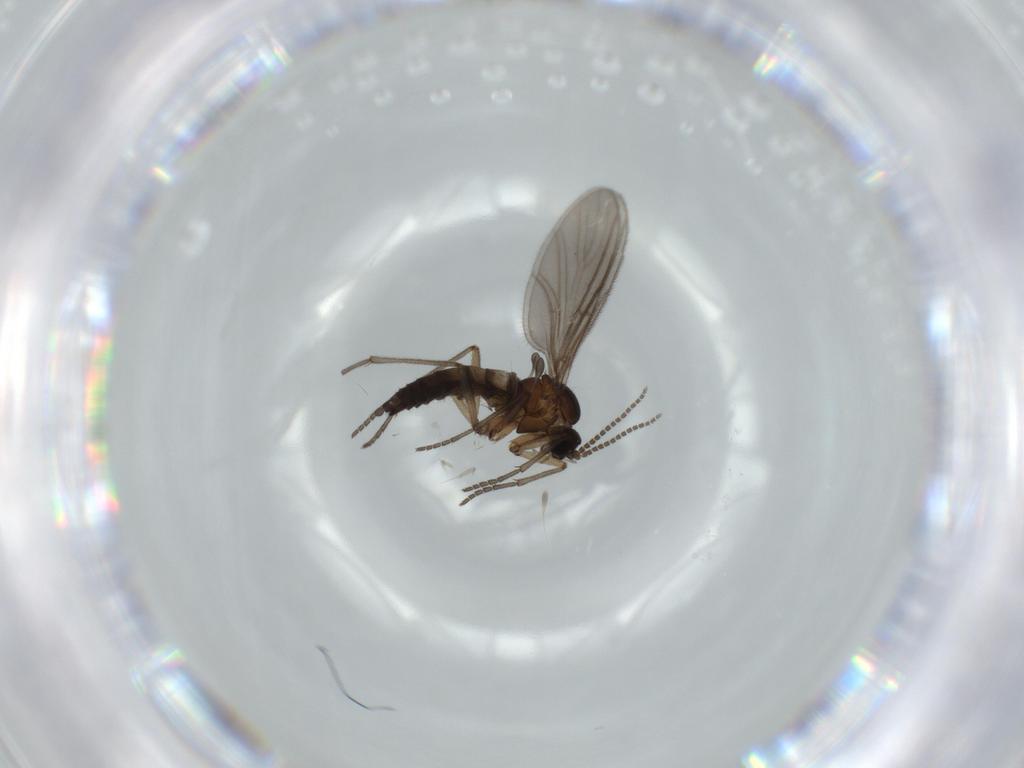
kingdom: Animalia
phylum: Arthropoda
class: Insecta
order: Diptera
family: Sciaridae
